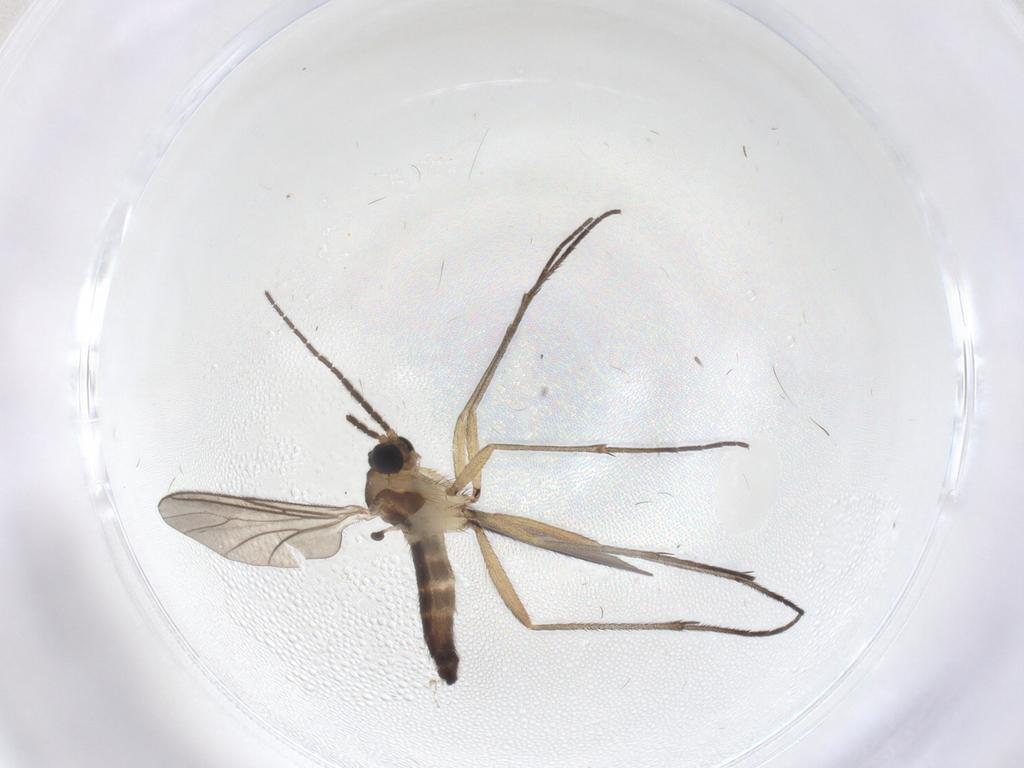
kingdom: Animalia
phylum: Arthropoda
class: Insecta
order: Diptera
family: Sciaridae
